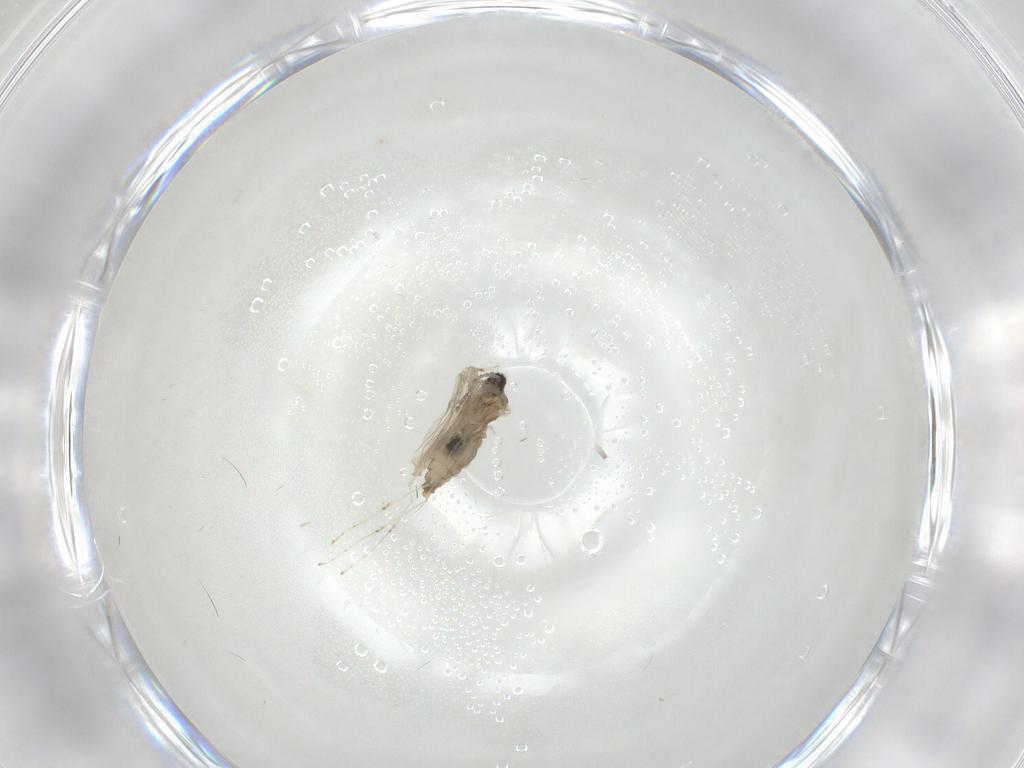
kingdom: Animalia
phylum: Arthropoda
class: Insecta
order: Diptera
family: Cecidomyiidae
